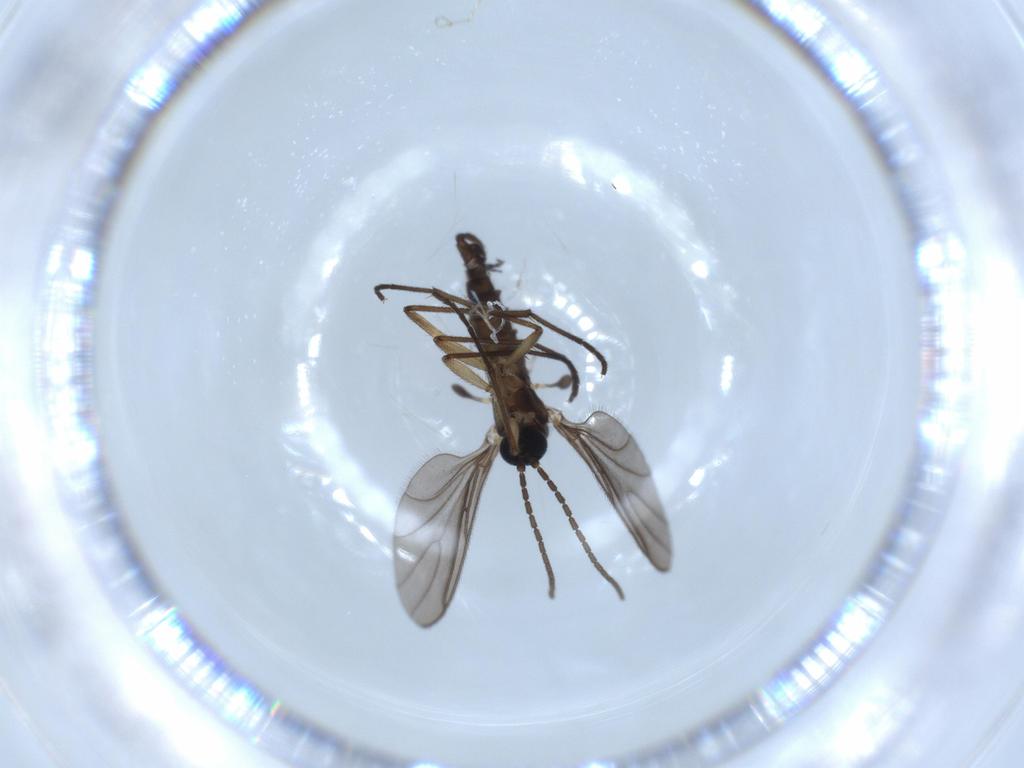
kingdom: Animalia
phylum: Arthropoda
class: Insecta
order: Diptera
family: Sciaridae
